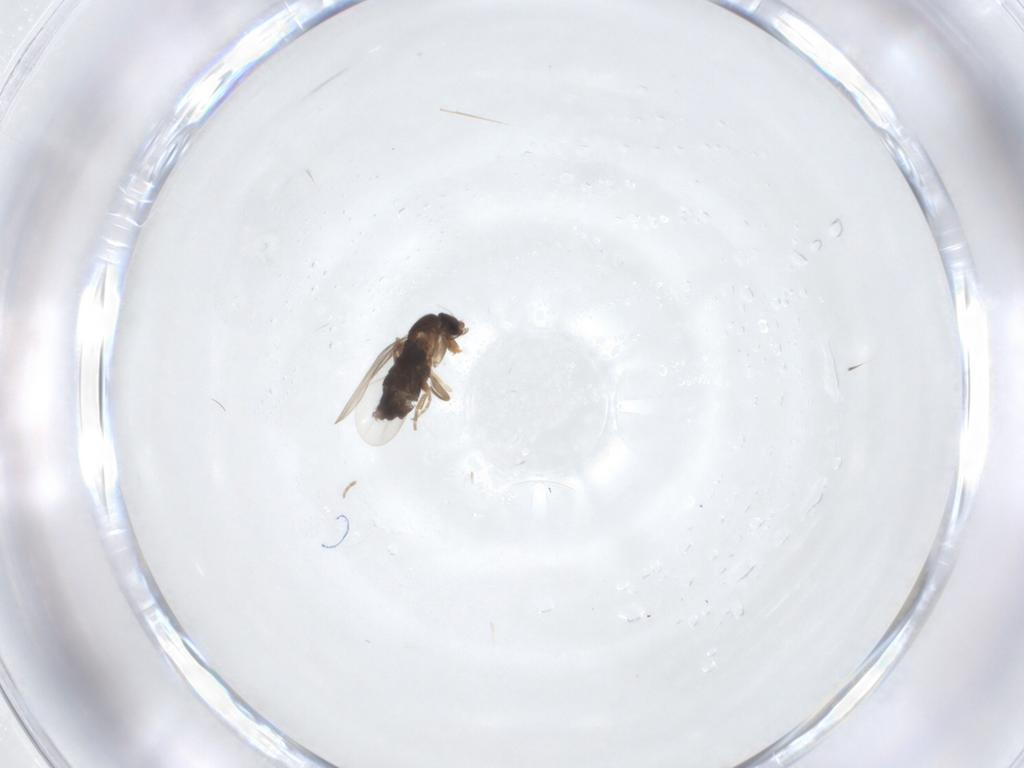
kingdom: Animalia
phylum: Arthropoda
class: Insecta
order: Diptera
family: Phoridae
